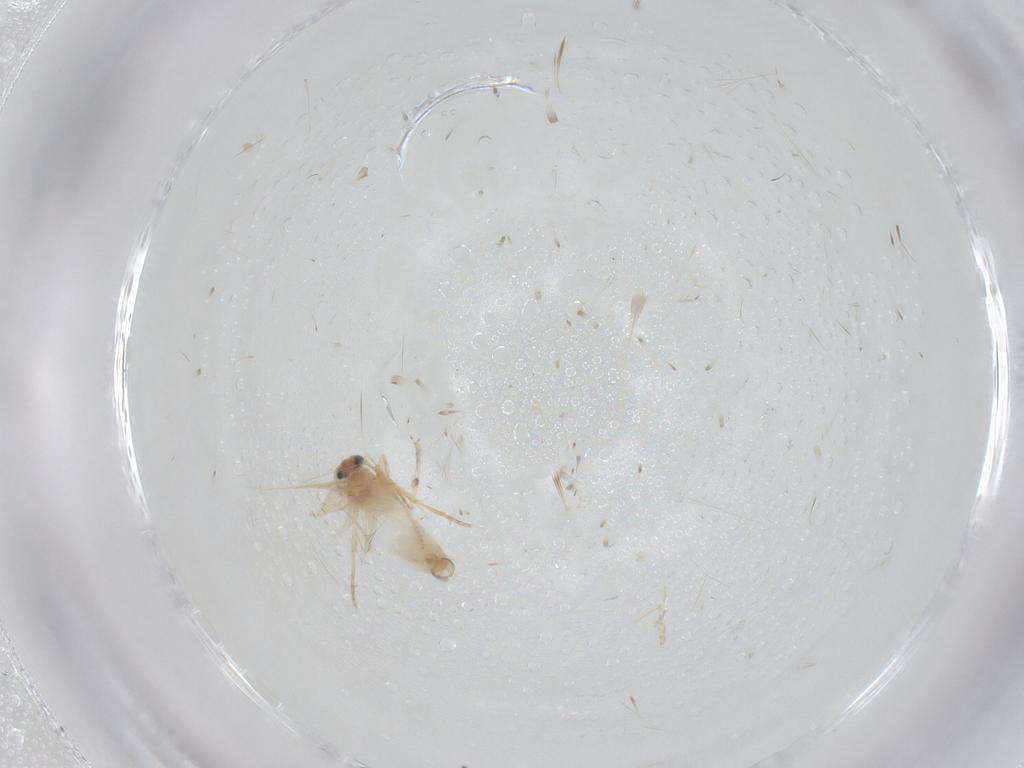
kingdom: Animalia
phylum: Arthropoda
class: Insecta
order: Lepidoptera
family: Nepticulidae
